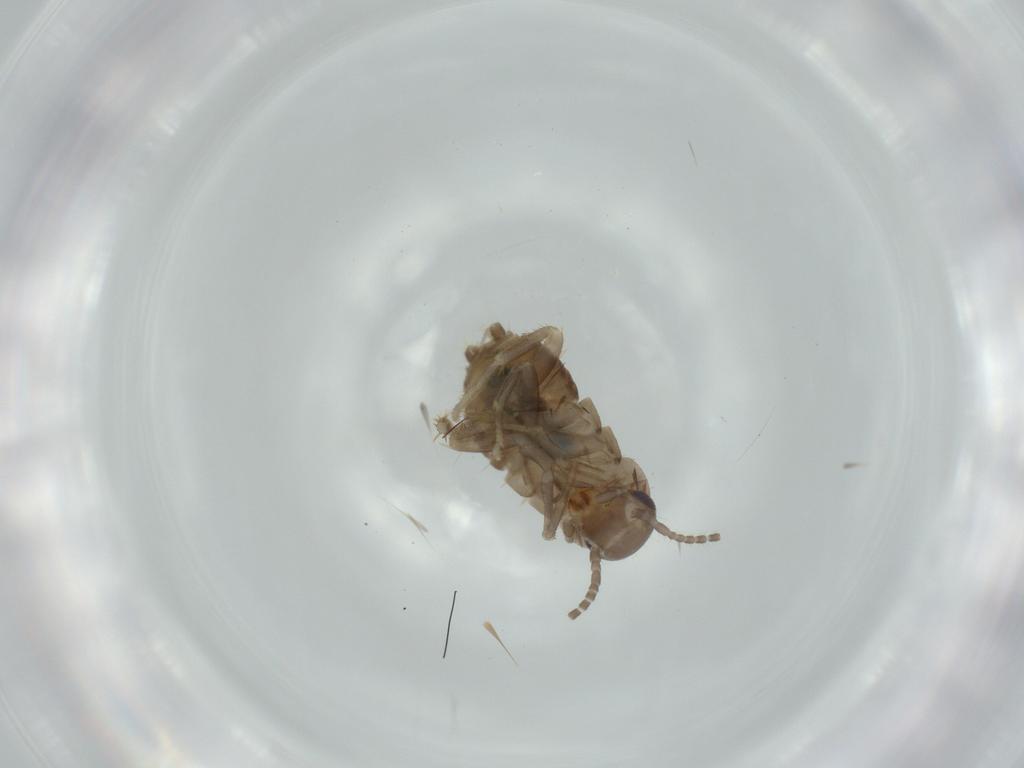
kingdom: Animalia
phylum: Arthropoda
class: Insecta
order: Blattodea
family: Ectobiidae
